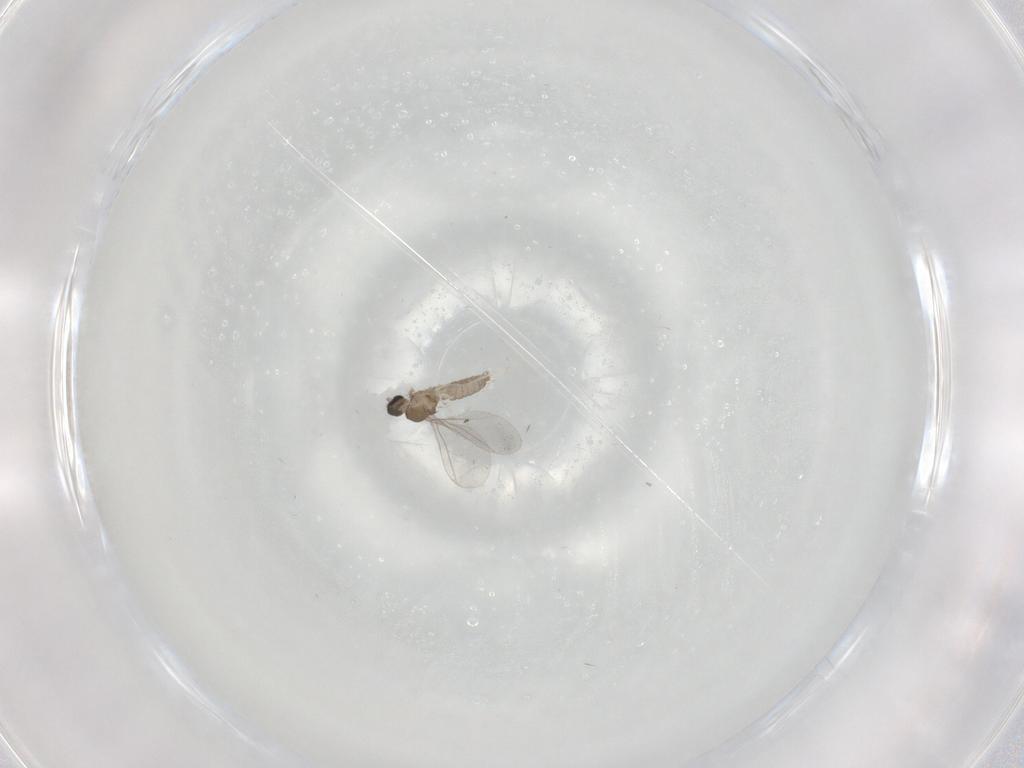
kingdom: Animalia
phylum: Arthropoda
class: Insecta
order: Diptera
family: Cecidomyiidae
